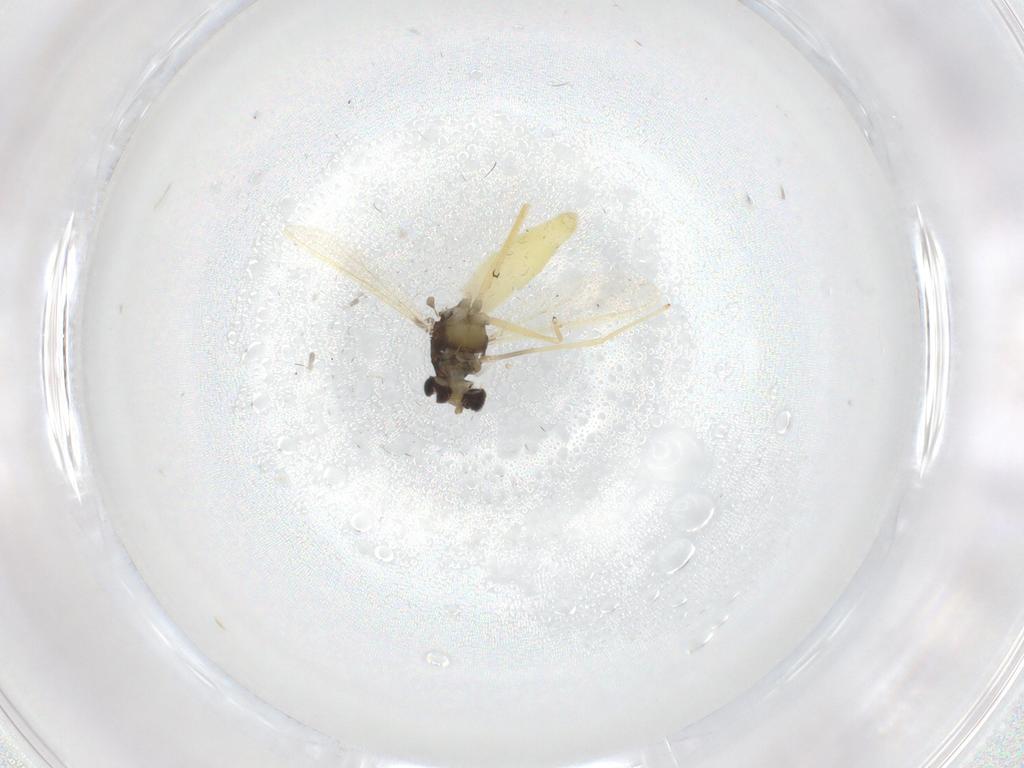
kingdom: Animalia
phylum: Arthropoda
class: Insecta
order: Diptera
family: Chironomidae
